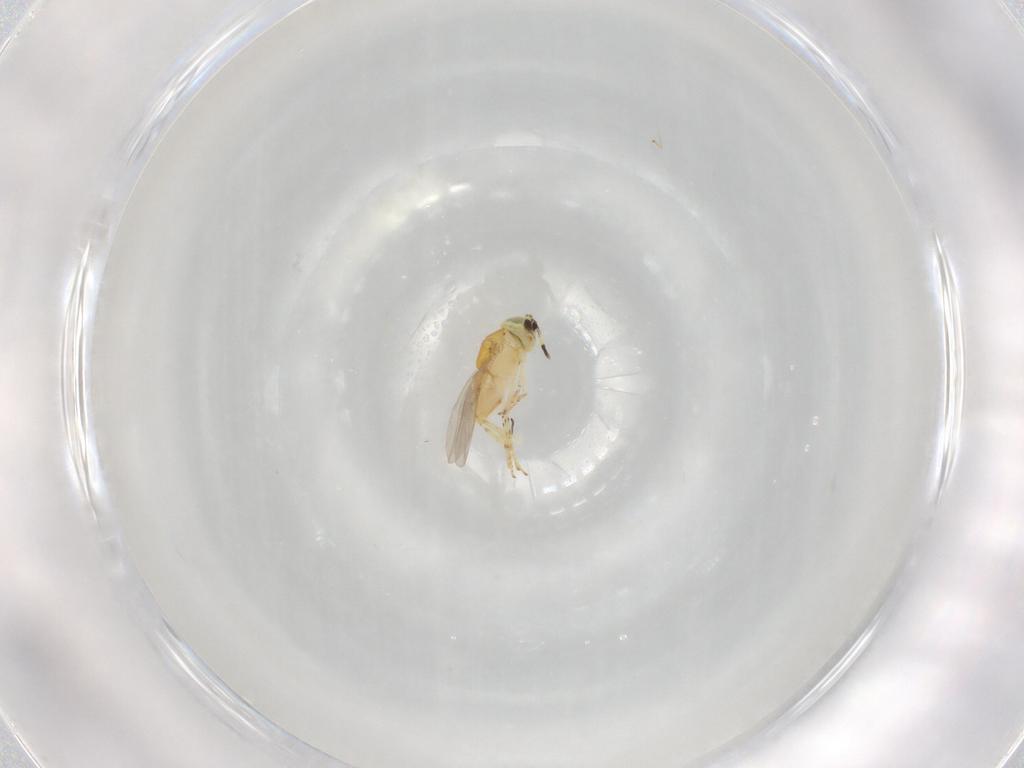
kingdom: Animalia
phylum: Arthropoda
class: Insecta
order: Hymenoptera
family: Encyrtidae
